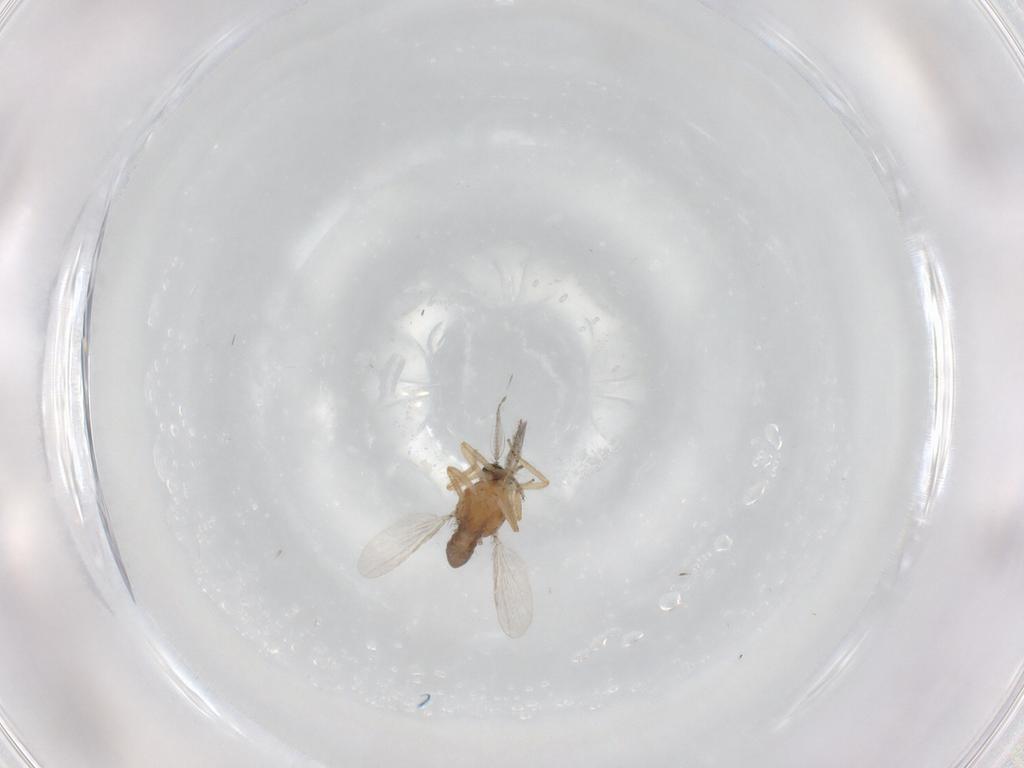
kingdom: Animalia
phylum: Arthropoda
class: Insecta
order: Diptera
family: Ceratopogonidae
